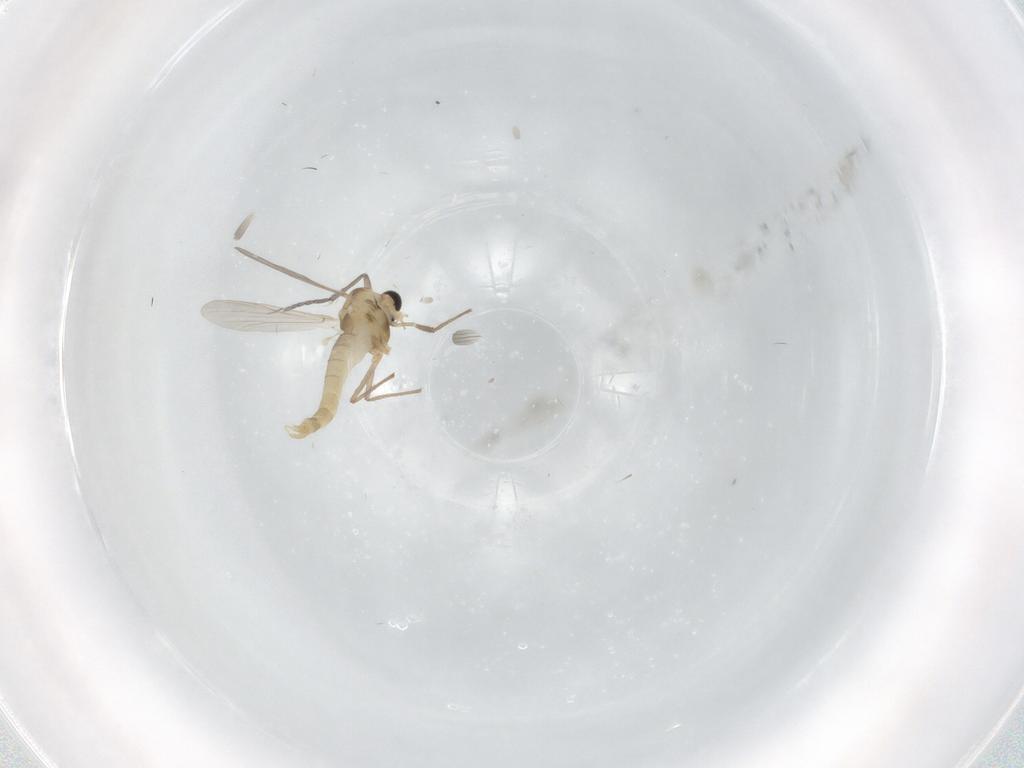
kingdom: Animalia
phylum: Arthropoda
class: Insecta
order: Diptera
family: Sciaridae
